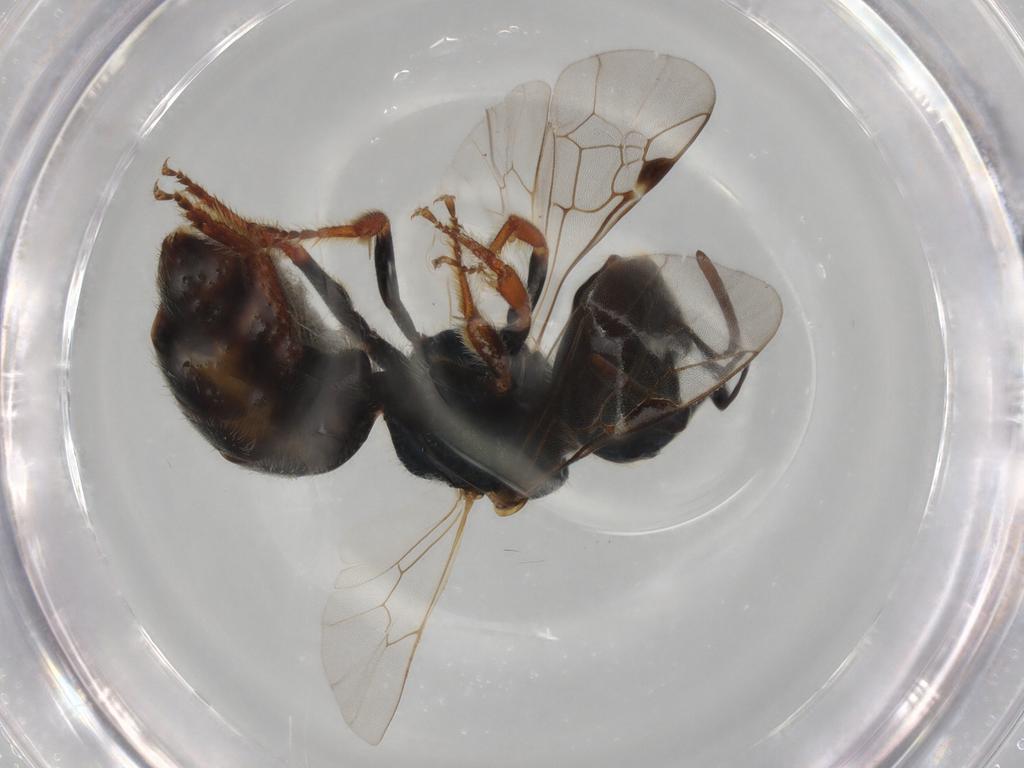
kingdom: Animalia
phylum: Arthropoda
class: Insecta
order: Hymenoptera
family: Halictidae
